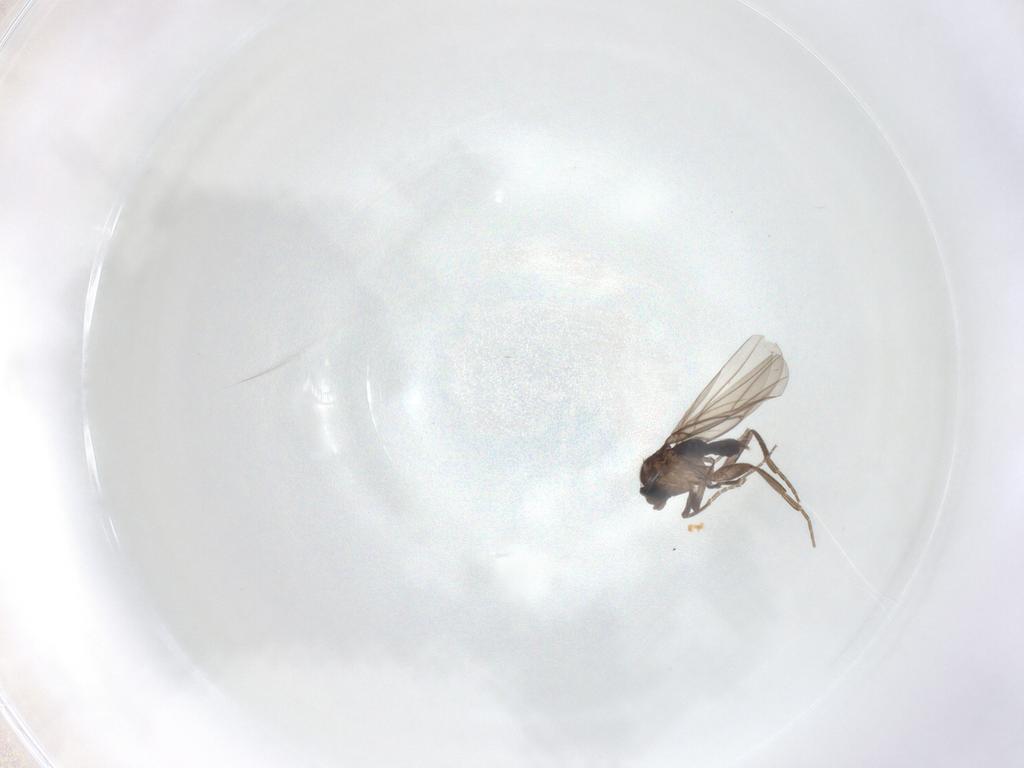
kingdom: Animalia
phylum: Arthropoda
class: Insecta
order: Diptera
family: Phoridae
